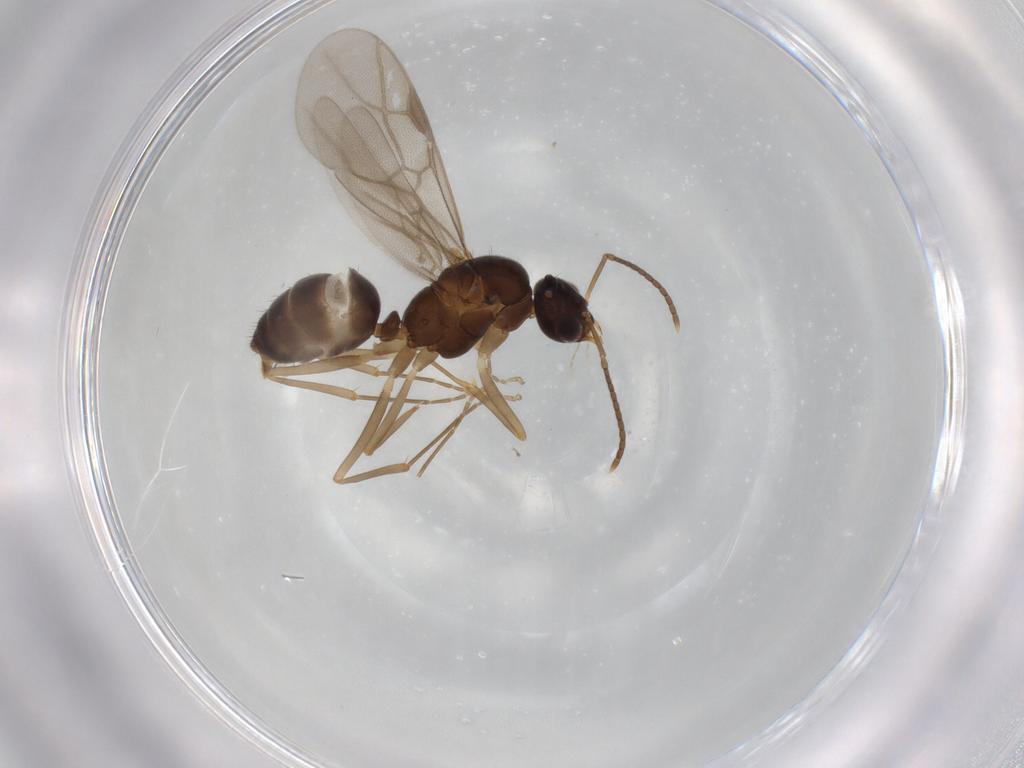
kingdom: Animalia
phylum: Arthropoda
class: Insecta
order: Hymenoptera
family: Formicidae
